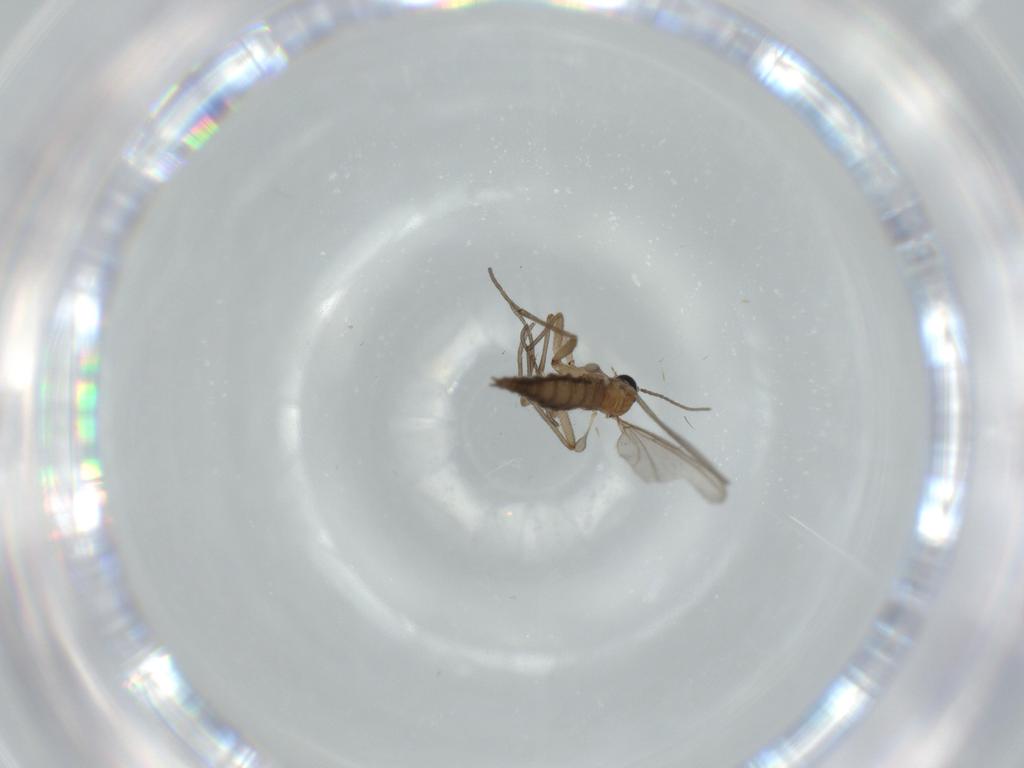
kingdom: Animalia
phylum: Arthropoda
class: Insecta
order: Diptera
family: Sciaridae
